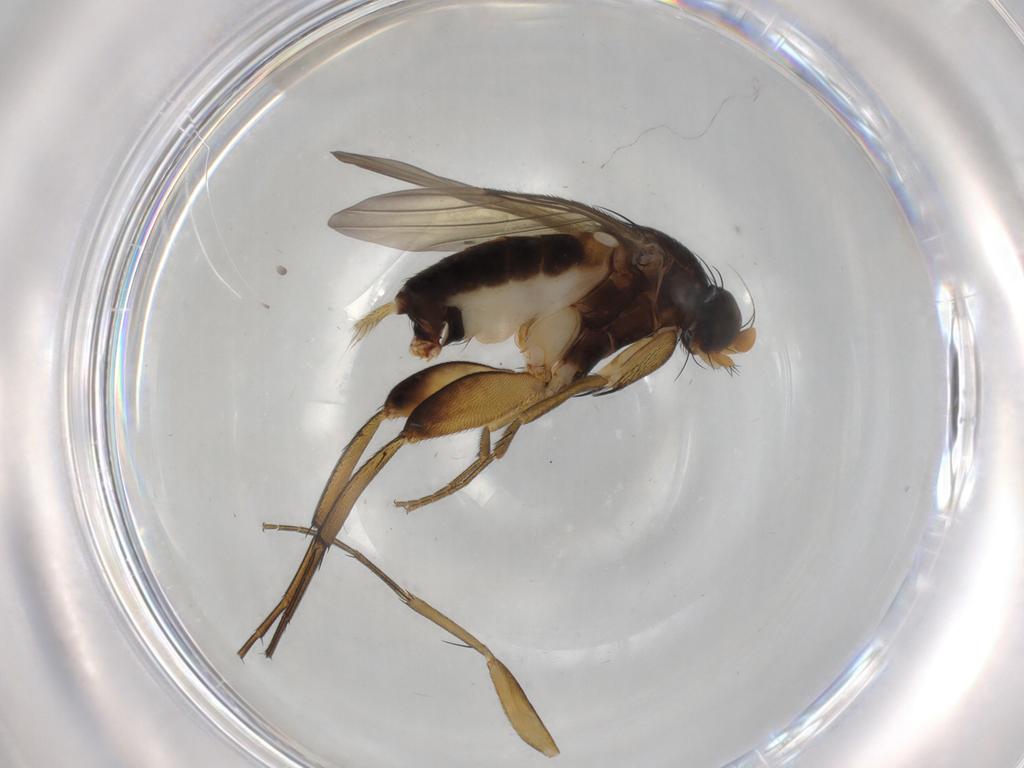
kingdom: Animalia
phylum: Arthropoda
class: Insecta
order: Diptera
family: Phoridae
